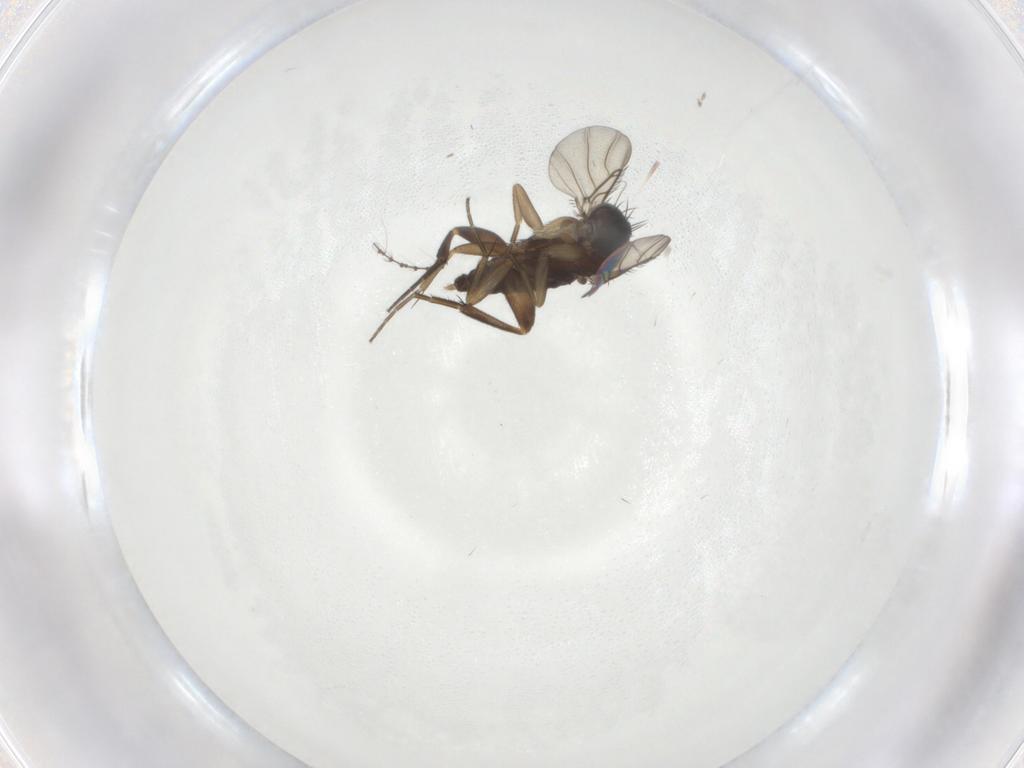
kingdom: Animalia
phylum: Arthropoda
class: Insecta
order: Diptera
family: Phoridae
